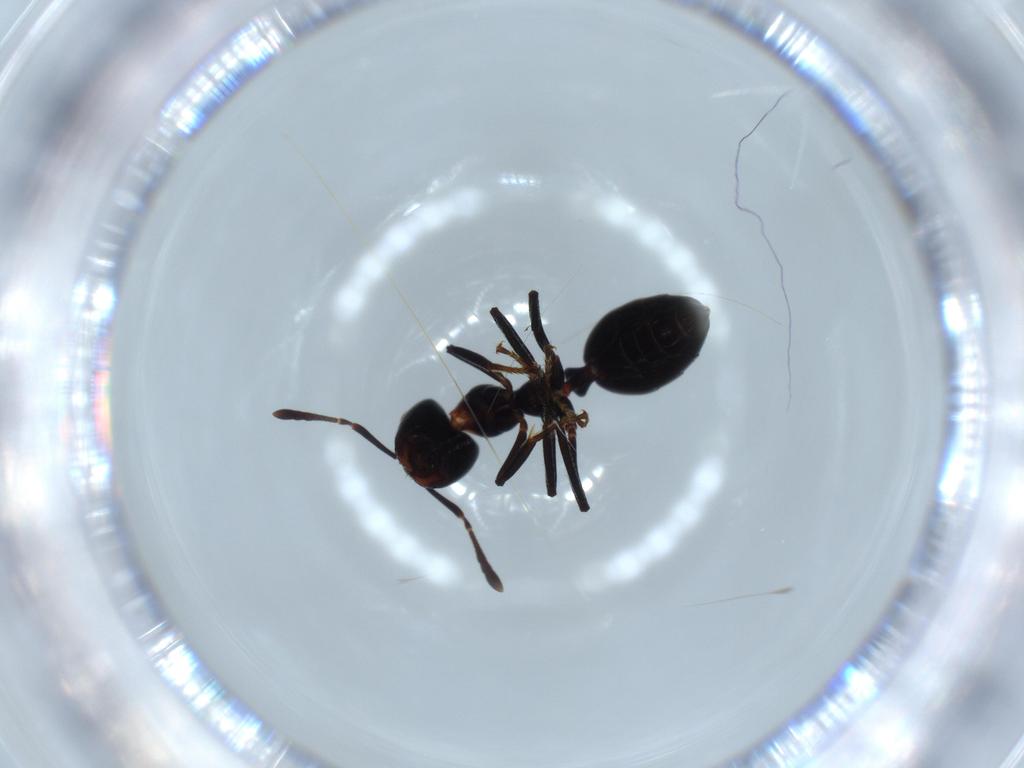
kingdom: Animalia
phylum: Arthropoda
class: Insecta
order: Hymenoptera
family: Formicidae
